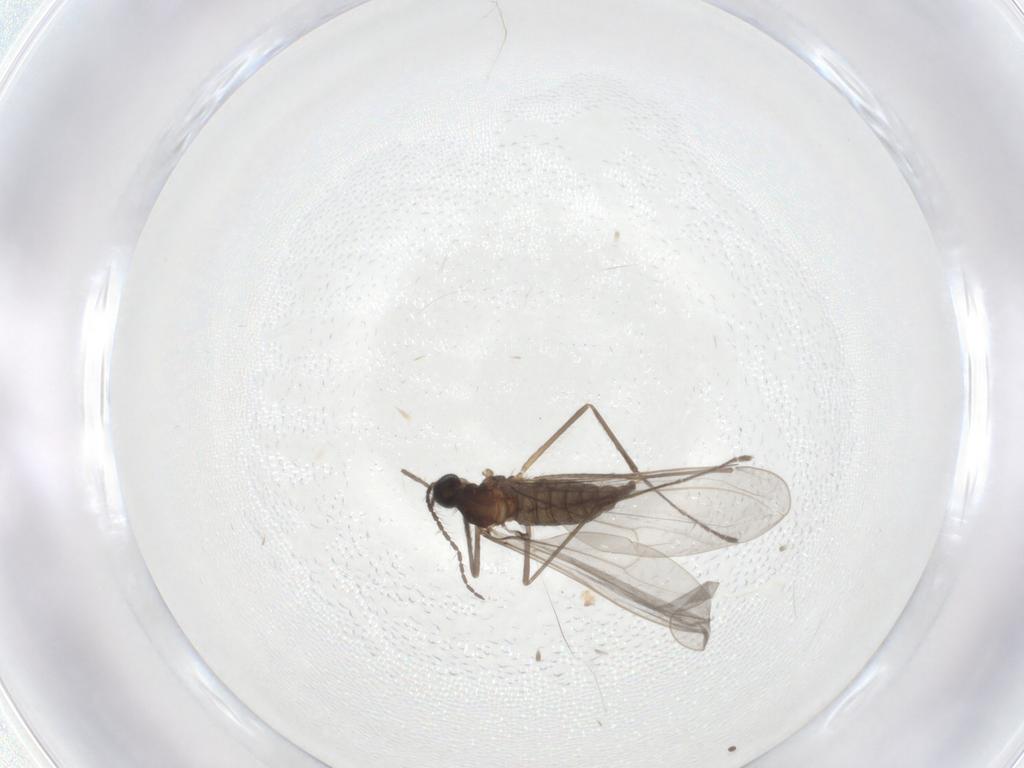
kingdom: Animalia
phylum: Arthropoda
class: Insecta
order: Diptera
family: Cecidomyiidae
